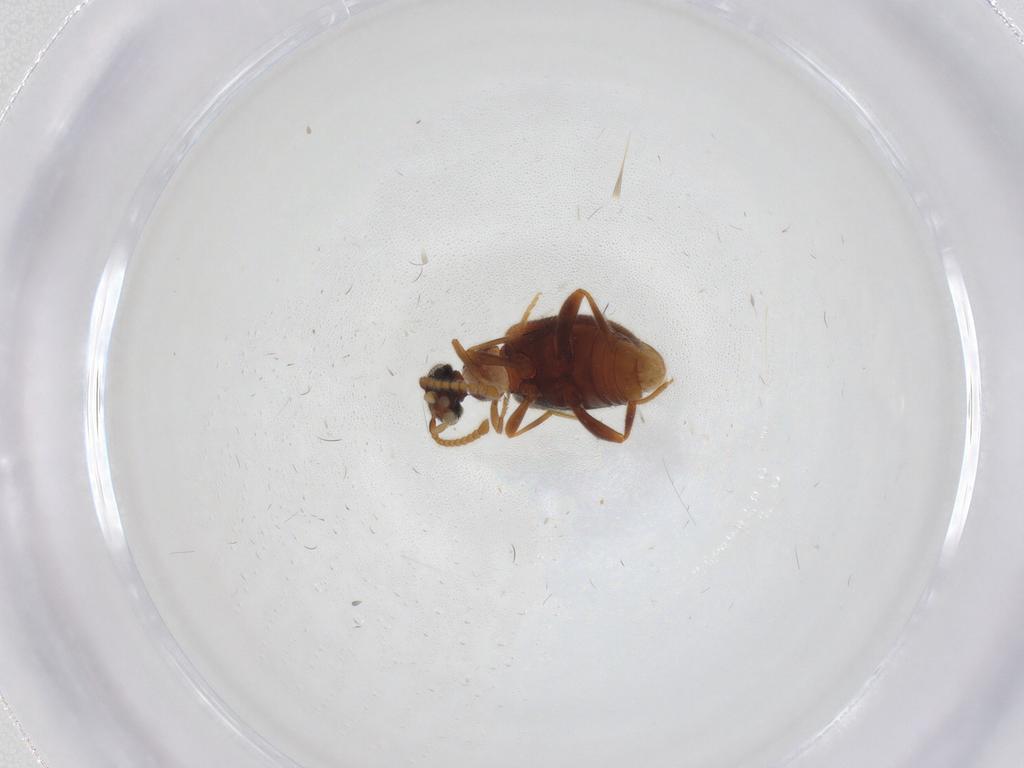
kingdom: Animalia
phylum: Arthropoda
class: Insecta
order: Coleoptera
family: Aderidae
